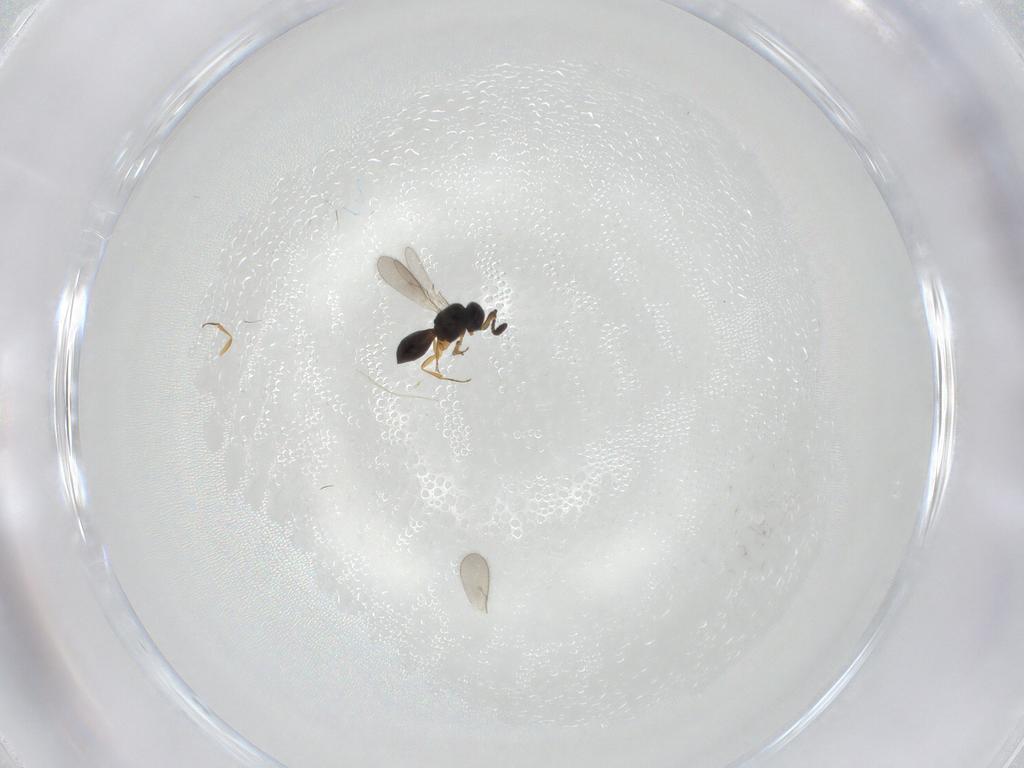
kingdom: Animalia
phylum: Arthropoda
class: Insecta
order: Hymenoptera
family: Scelionidae
